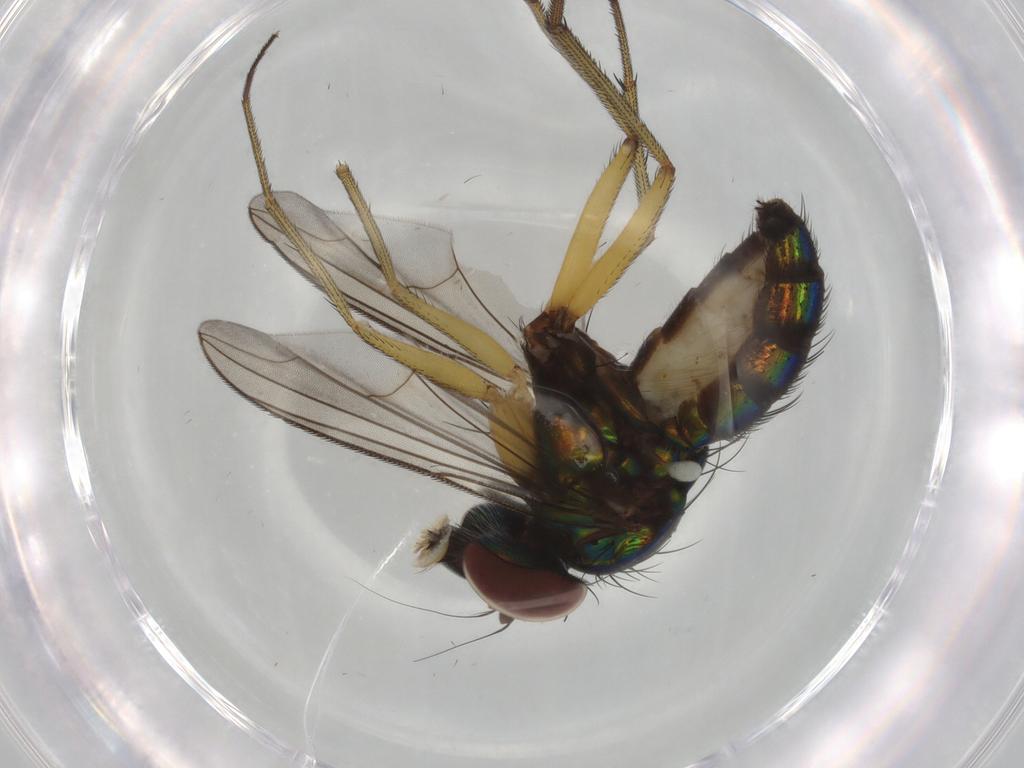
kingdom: Animalia
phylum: Arthropoda
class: Insecta
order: Diptera
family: Dolichopodidae
